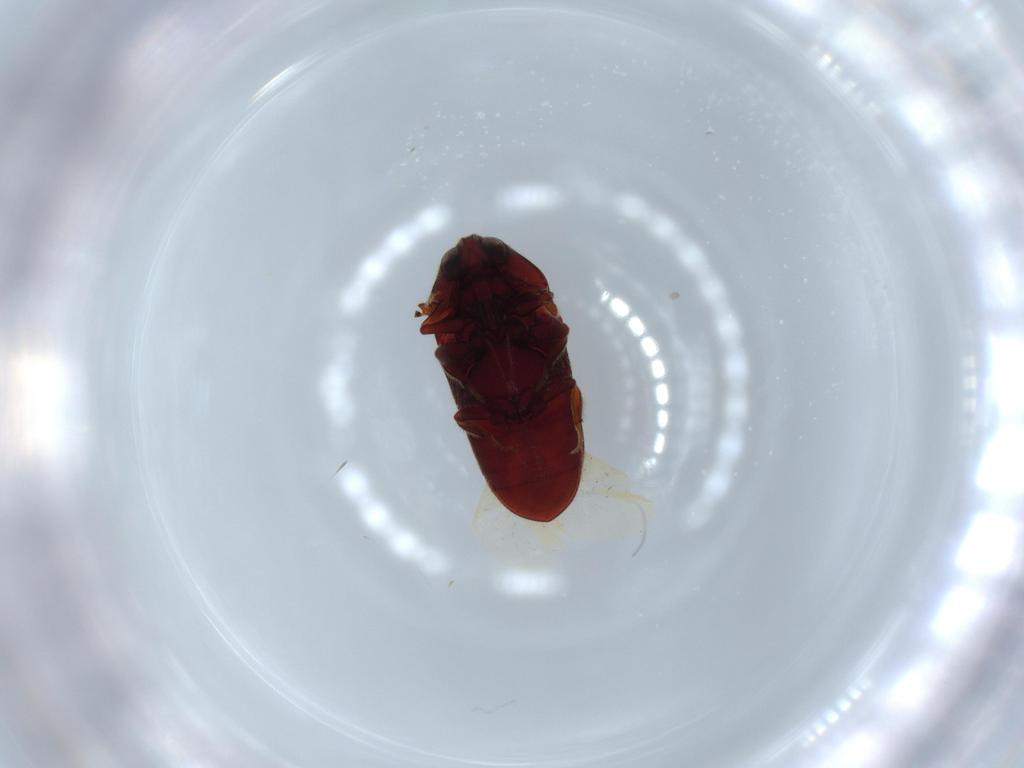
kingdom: Animalia
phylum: Arthropoda
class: Insecta
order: Coleoptera
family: Throscidae
